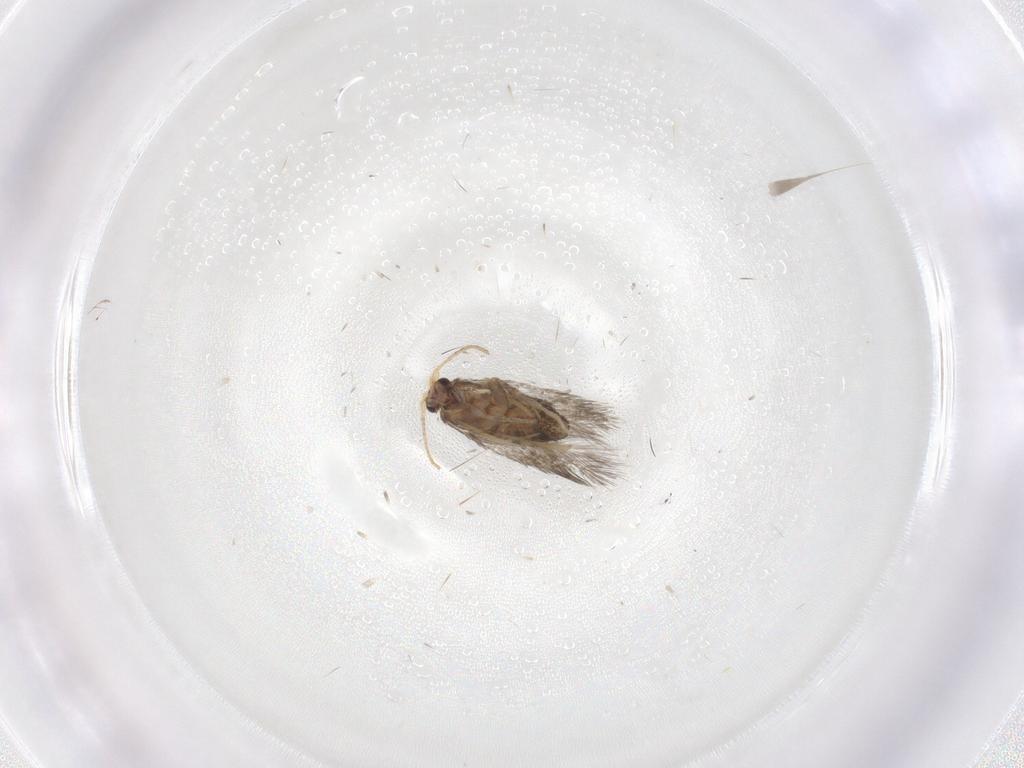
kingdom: Animalia
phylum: Arthropoda
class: Insecta
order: Lepidoptera
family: Nepticulidae
